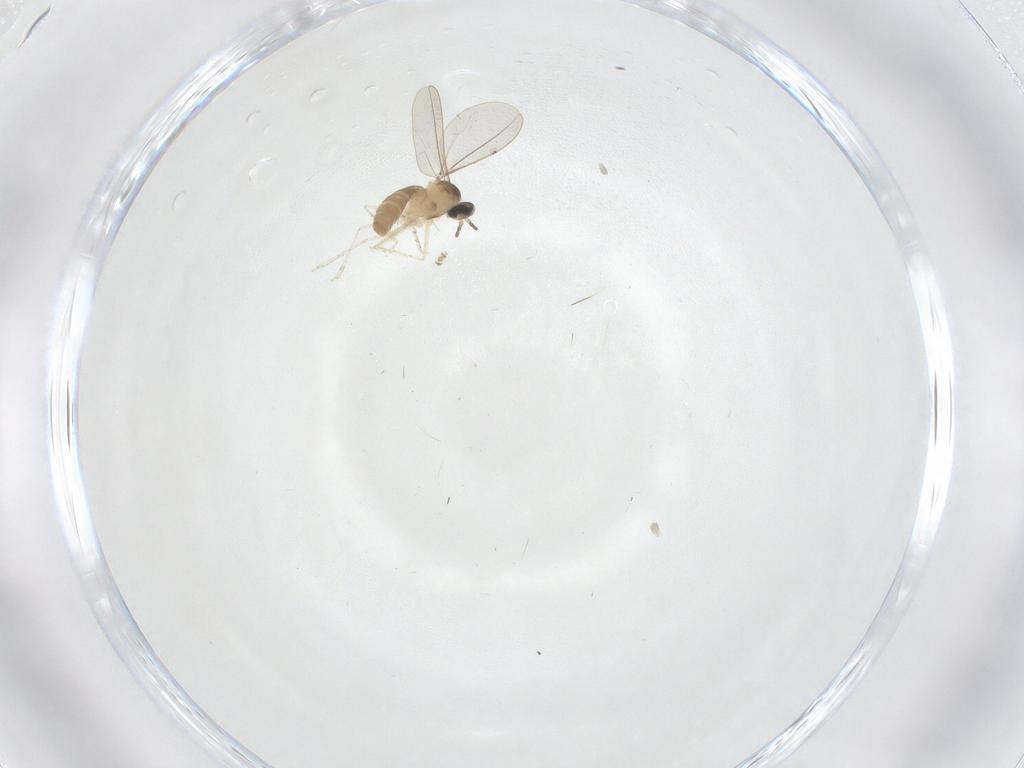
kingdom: Animalia
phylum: Arthropoda
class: Insecta
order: Diptera
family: Cecidomyiidae
